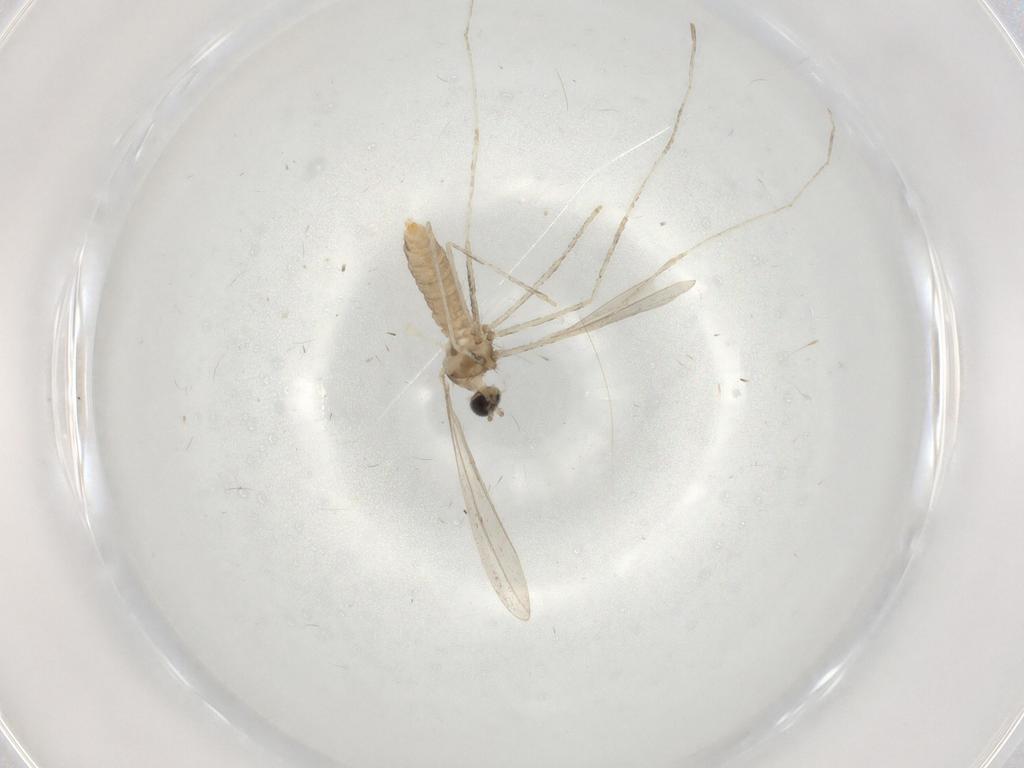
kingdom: Animalia
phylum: Arthropoda
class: Insecta
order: Diptera
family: Cecidomyiidae
